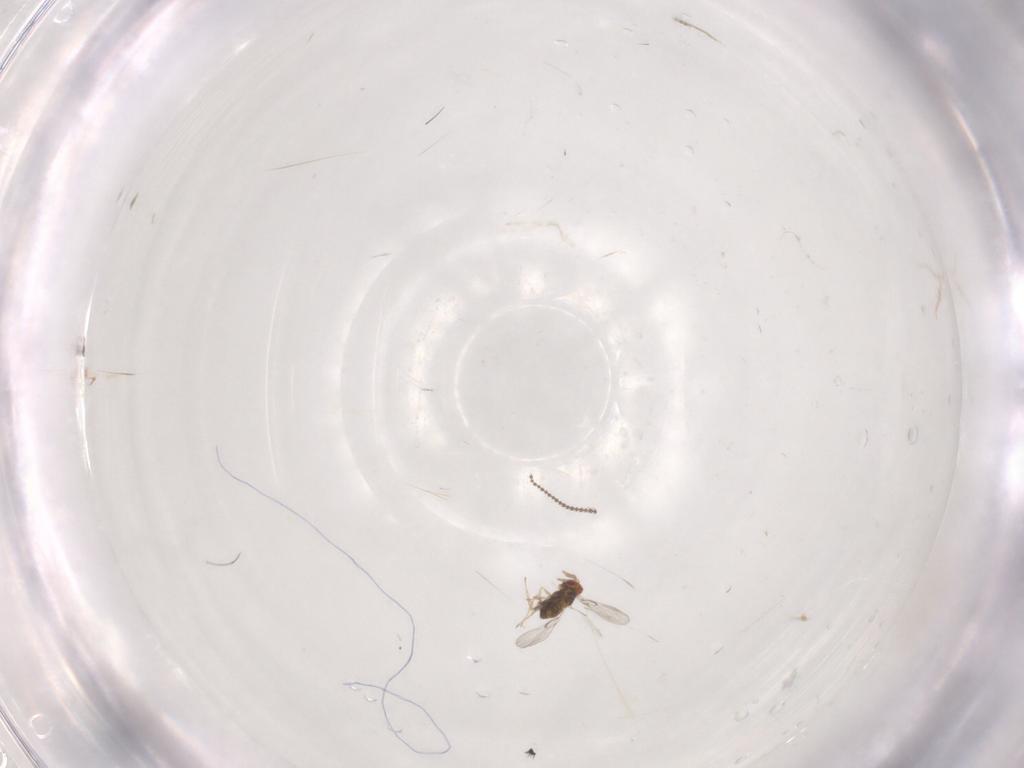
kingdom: Animalia
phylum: Arthropoda
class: Insecta
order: Diptera
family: Cecidomyiidae
